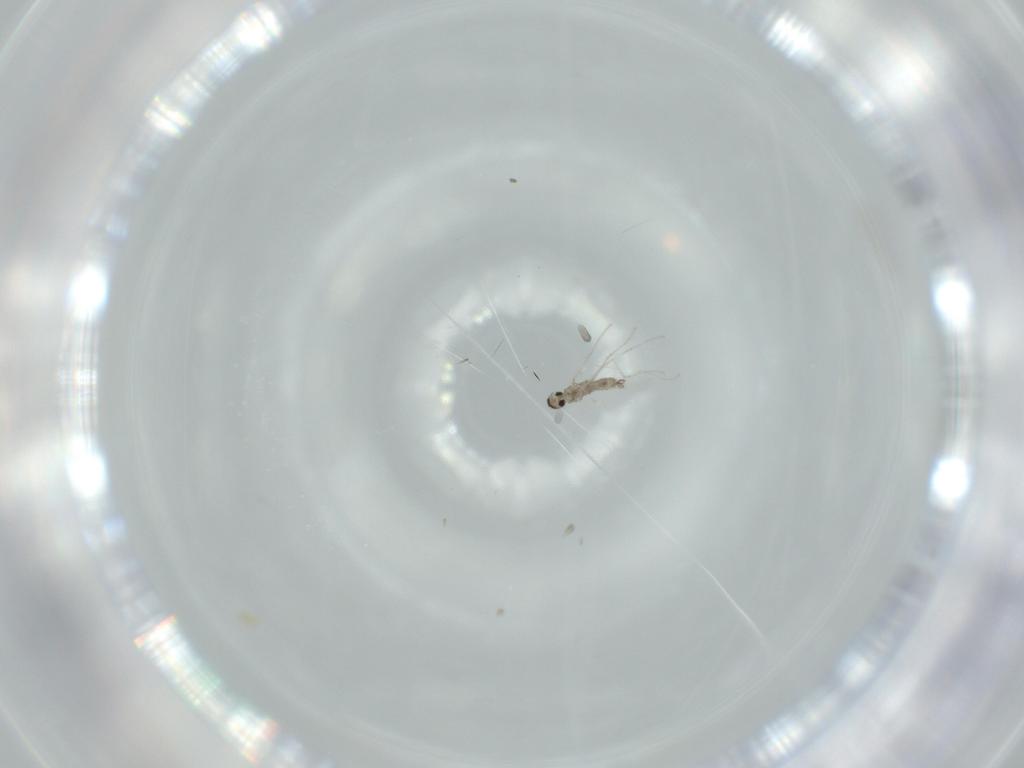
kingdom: Animalia
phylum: Arthropoda
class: Insecta
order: Diptera
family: Cecidomyiidae
